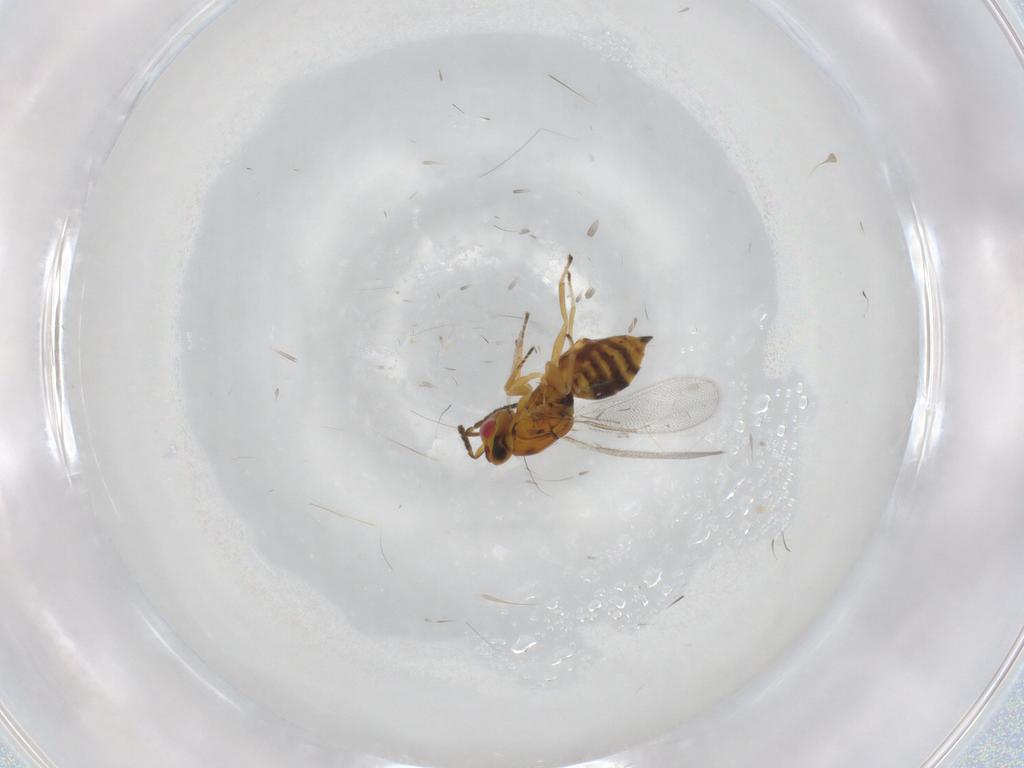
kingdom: Animalia
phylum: Arthropoda
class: Insecta
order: Hymenoptera
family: Eulophidae
